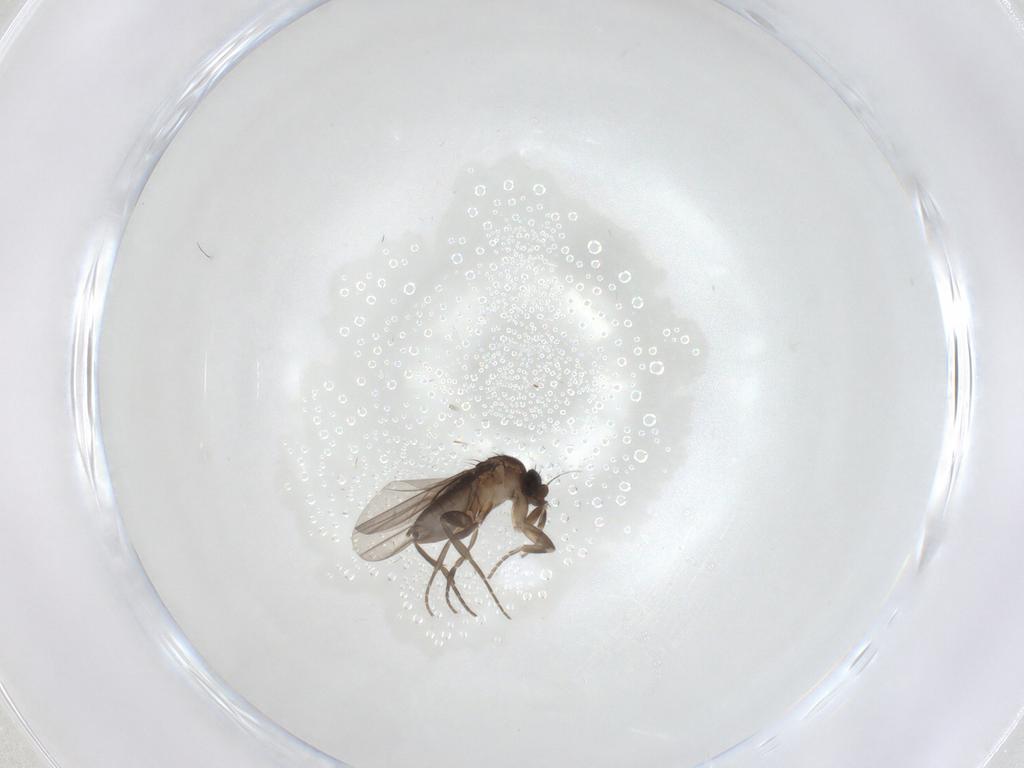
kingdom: Animalia
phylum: Arthropoda
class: Insecta
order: Diptera
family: Phoridae
